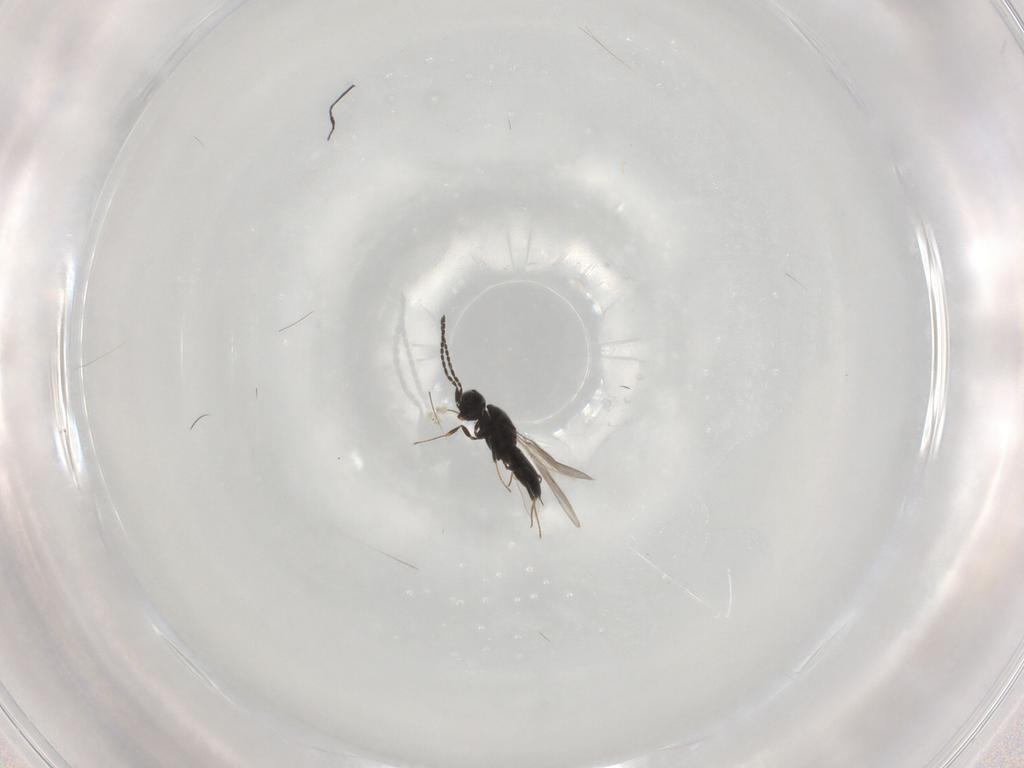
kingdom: Animalia
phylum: Arthropoda
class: Insecta
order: Hymenoptera
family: Scelionidae
